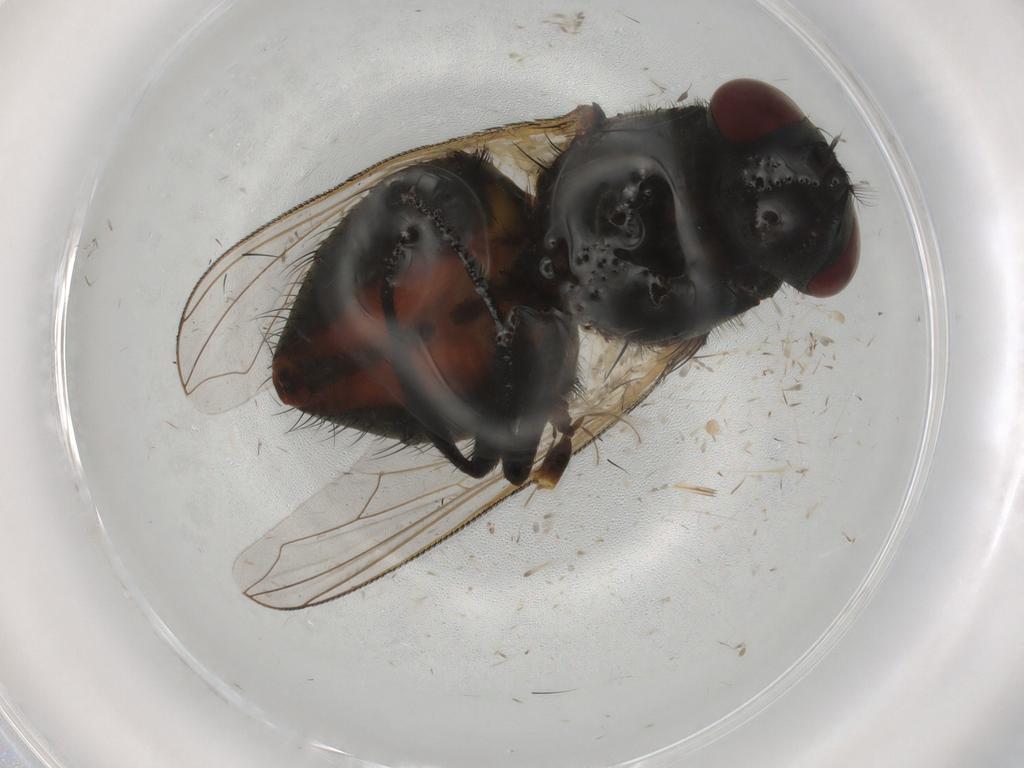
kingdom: Animalia
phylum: Arthropoda
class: Insecta
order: Diptera
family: Muscidae
